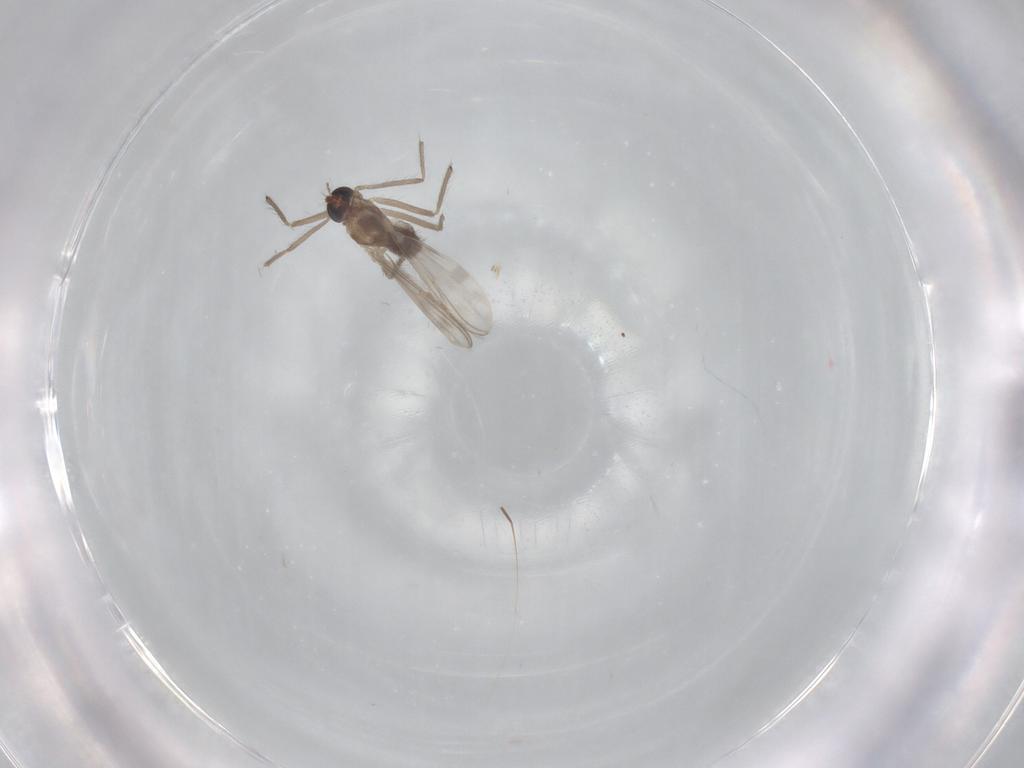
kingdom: Animalia
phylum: Arthropoda
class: Insecta
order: Diptera
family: Cecidomyiidae
